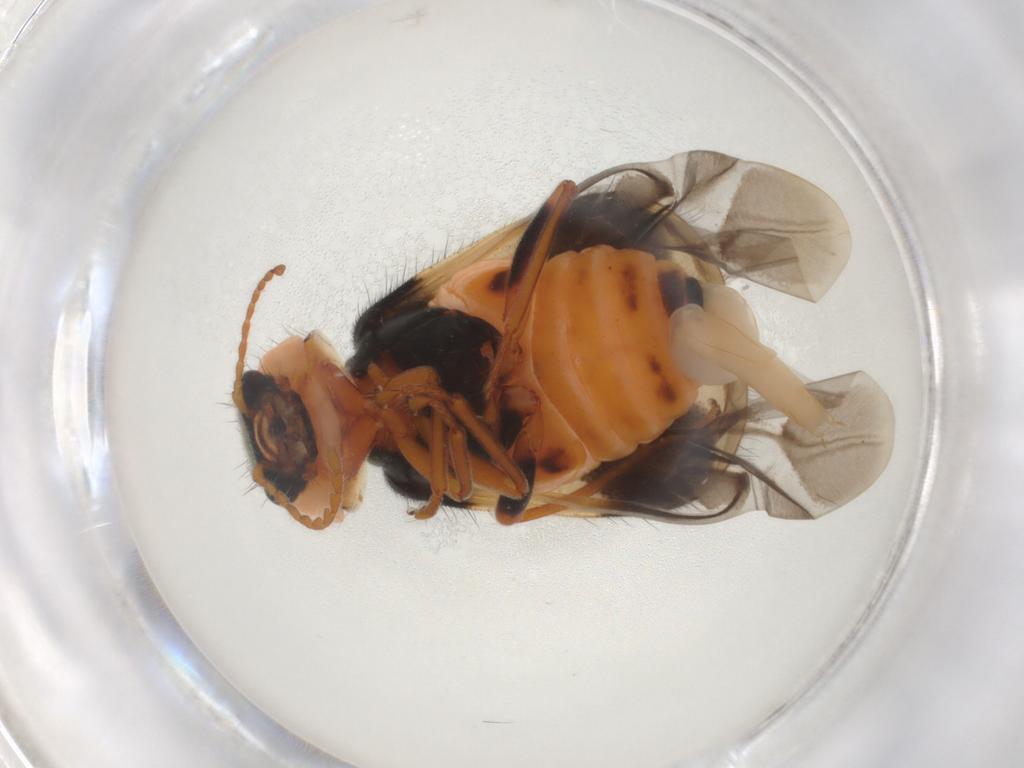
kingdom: Animalia
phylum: Arthropoda
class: Insecta
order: Coleoptera
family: Melyridae
